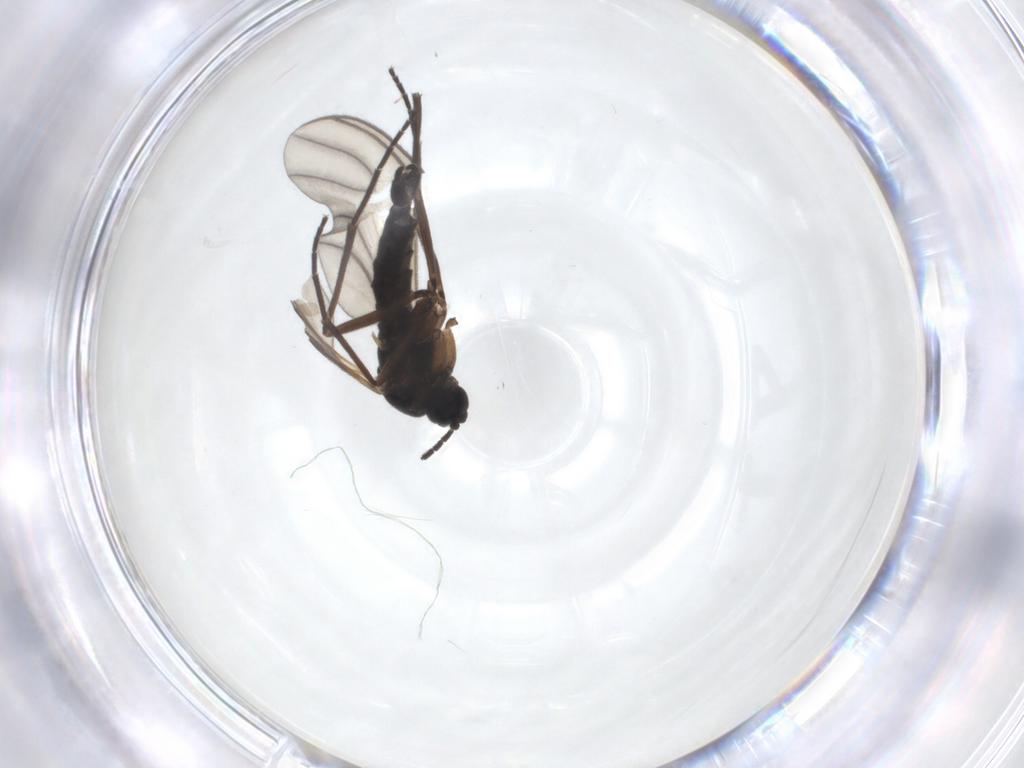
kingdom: Animalia
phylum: Arthropoda
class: Insecta
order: Diptera
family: Sciaridae
